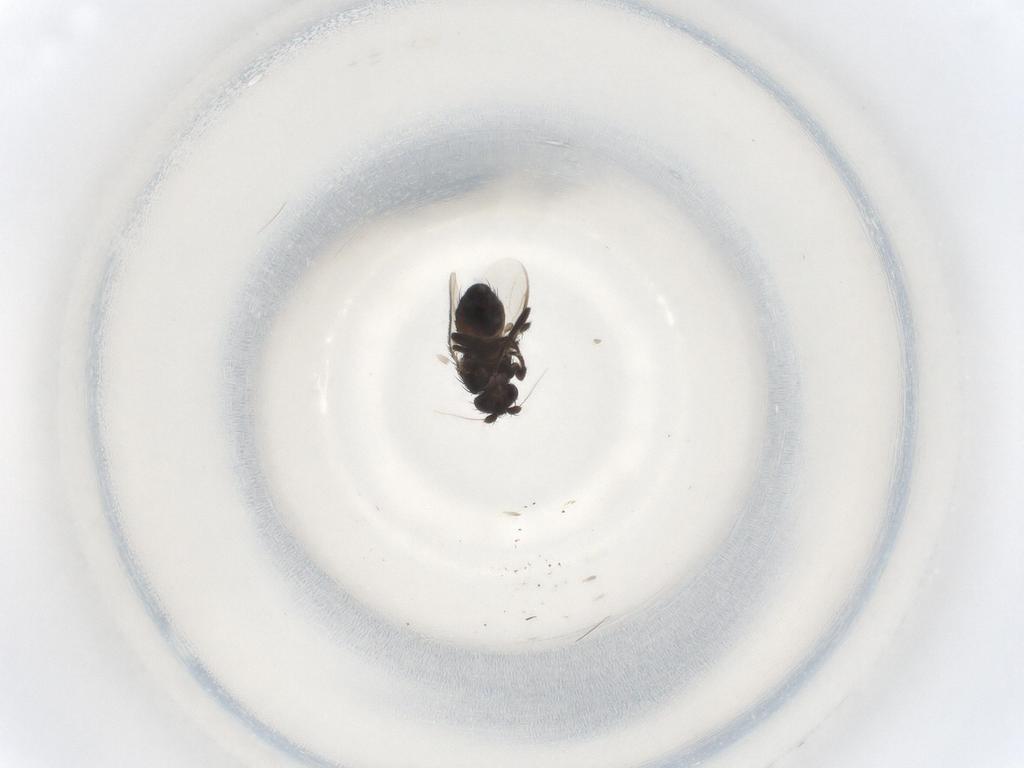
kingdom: Animalia
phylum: Arthropoda
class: Insecta
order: Diptera
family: Sphaeroceridae
